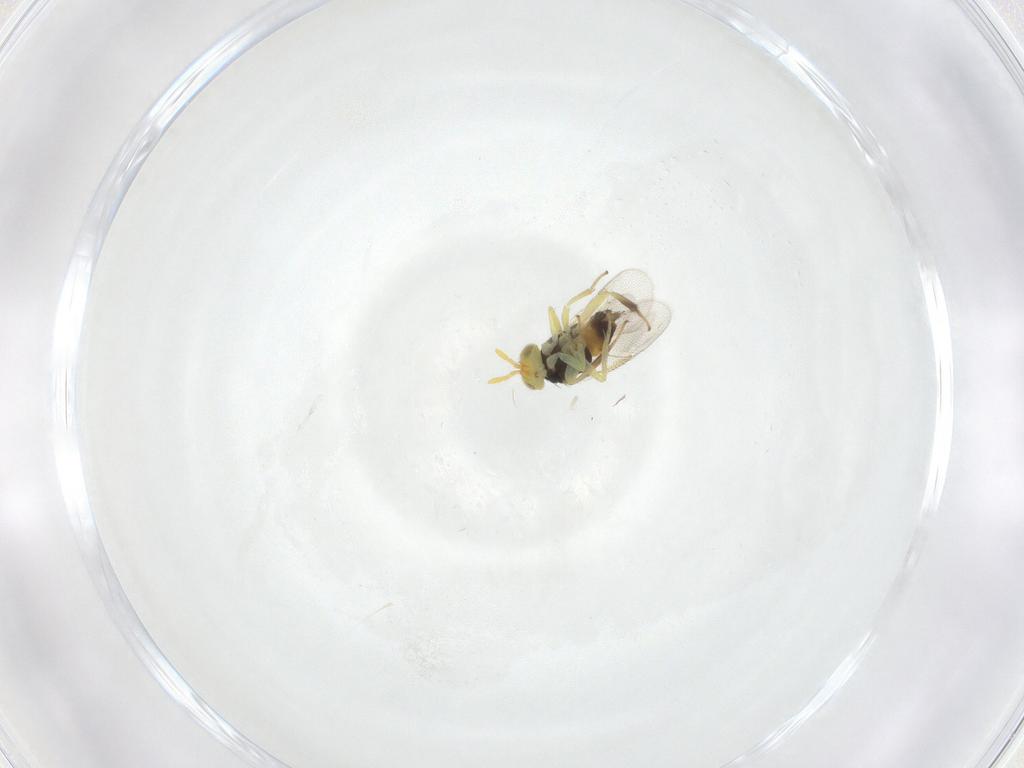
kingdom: Animalia
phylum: Arthropoda
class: Insecta
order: Hymenoptera
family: Aphelinidae
